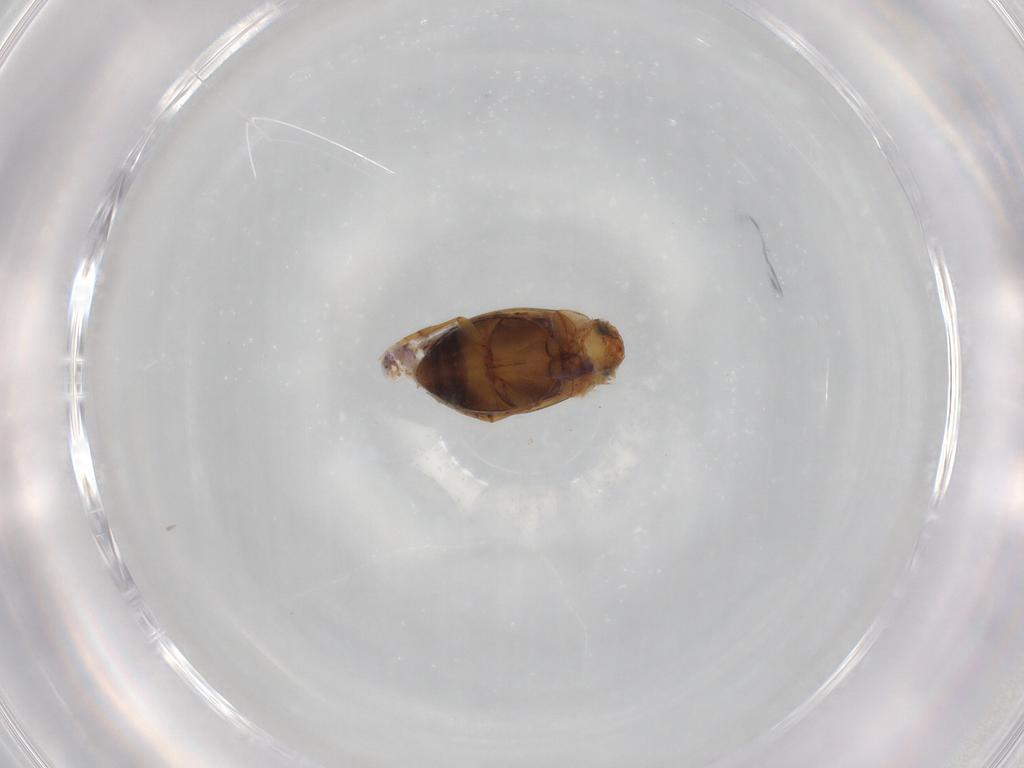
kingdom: Animalia
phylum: Arthropoda
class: Insecta
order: Coleoptera
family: Dytiscidae
